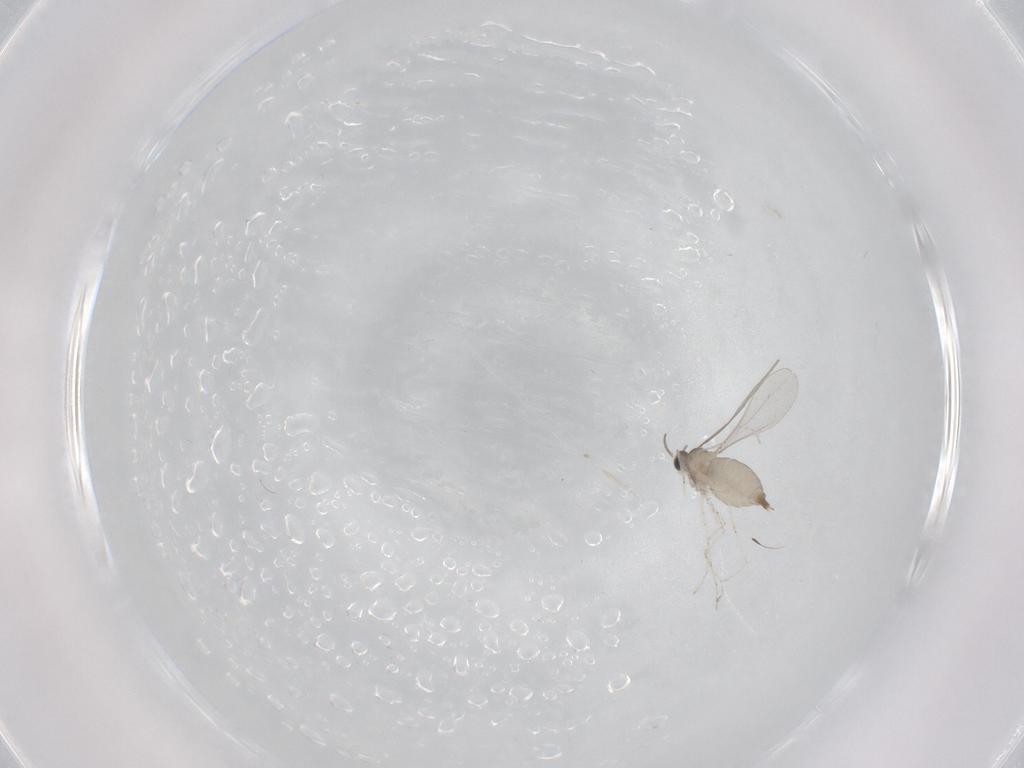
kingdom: Animalia
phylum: Arthropoda
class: Insecta
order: Diptera
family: Cecidomyiidae
